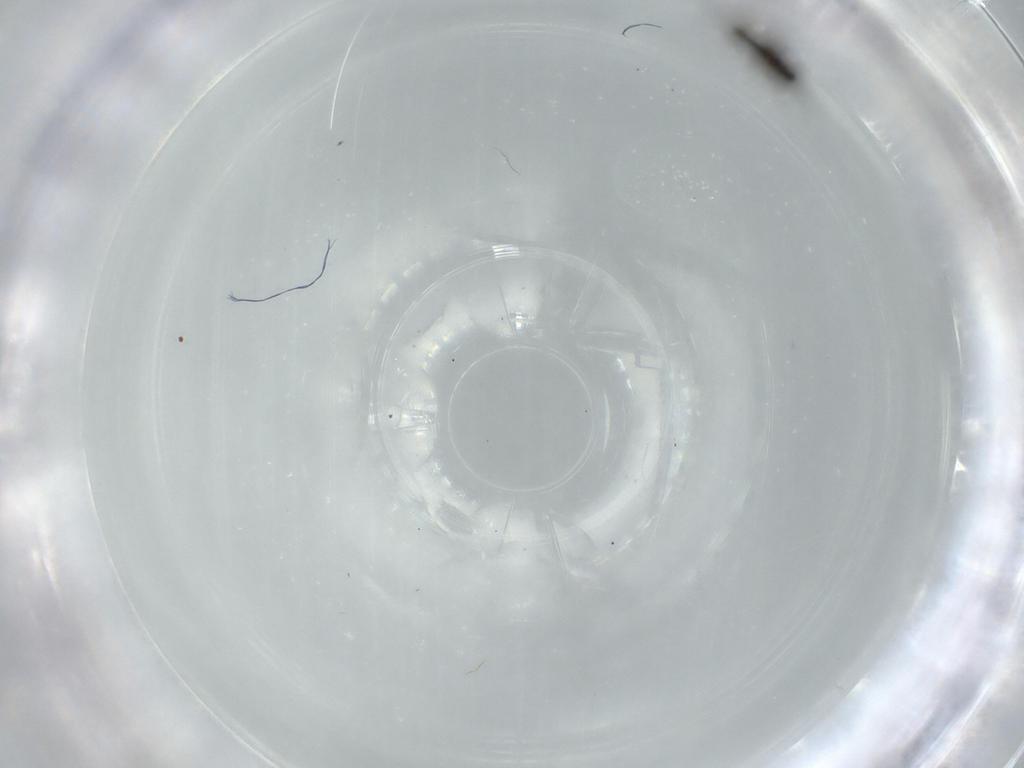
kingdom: Animalia
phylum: Arthropoda
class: Insecta
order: Diptera
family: Cecidomyiidae
